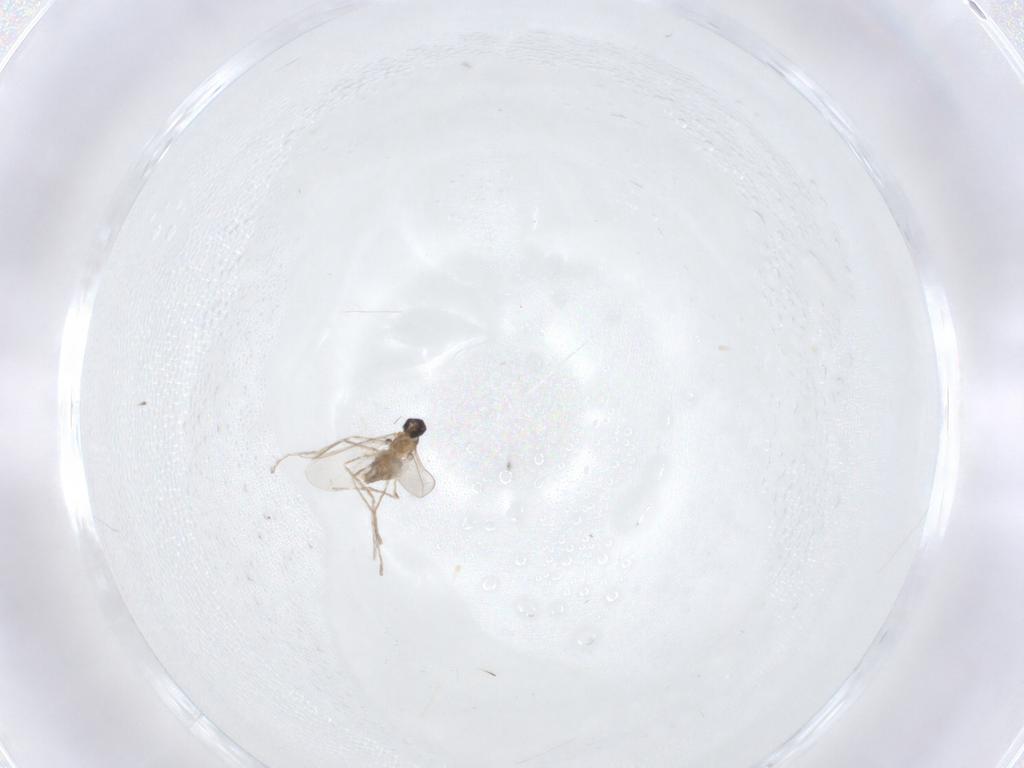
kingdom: Animalia
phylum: Arthropoda
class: Insecta
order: Diptera
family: Cecidomyiidae
